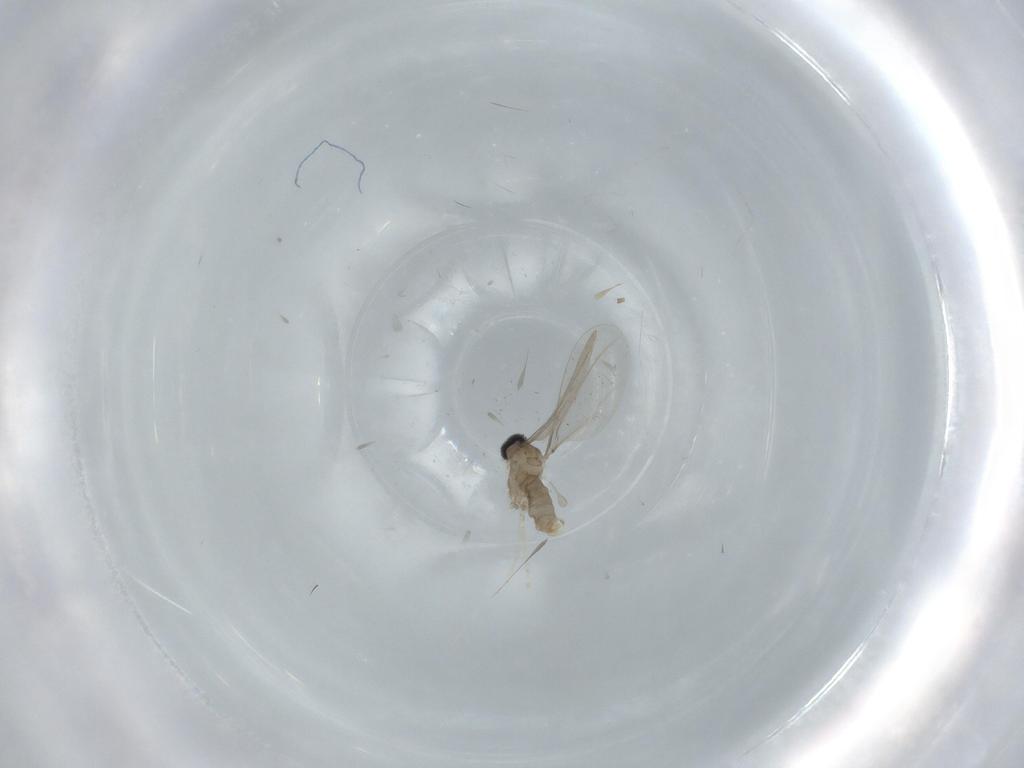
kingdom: Animalia
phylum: Arthropoda
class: Insecta
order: Diptera
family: Cecidomyiidae
